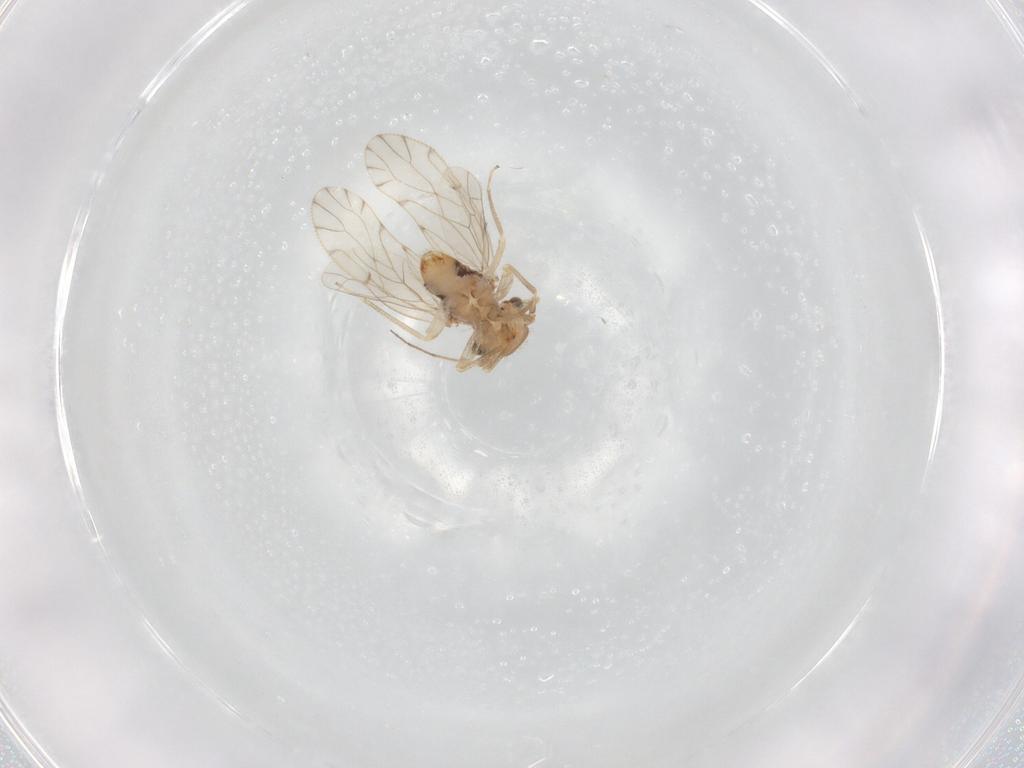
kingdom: Animalia
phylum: Arthropoda
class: Insecta
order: Psocodea
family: Ectopsocidae
